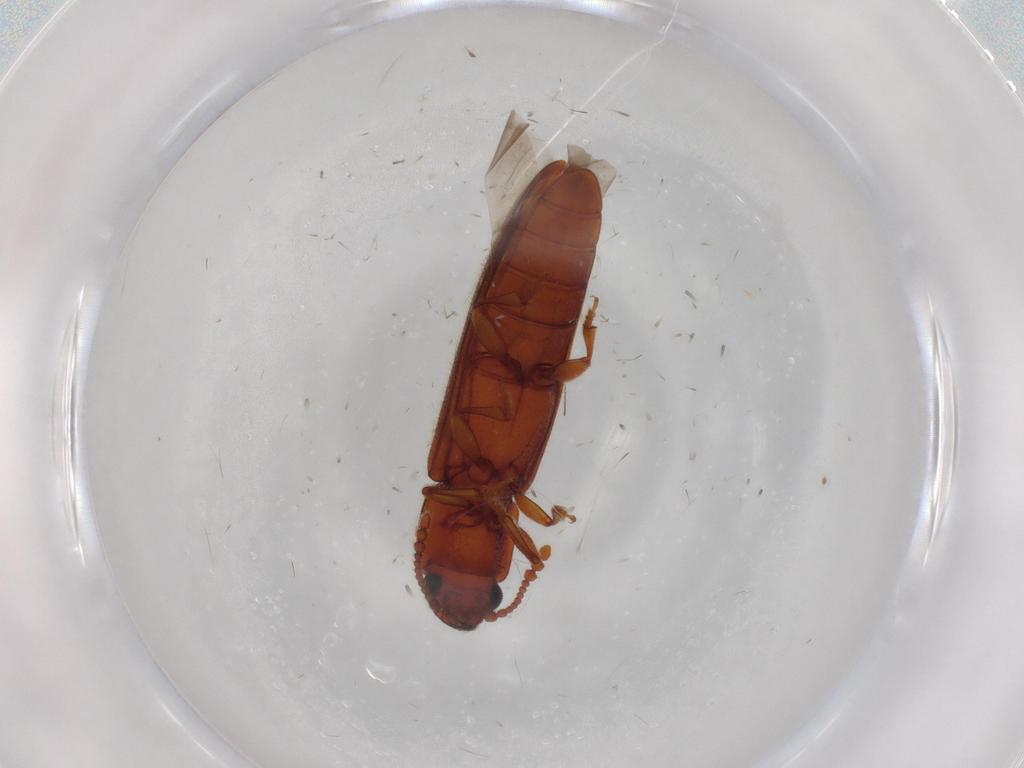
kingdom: Animalia
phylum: Arthropoda
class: Insecta
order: Coleoptera
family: Erotylidae
